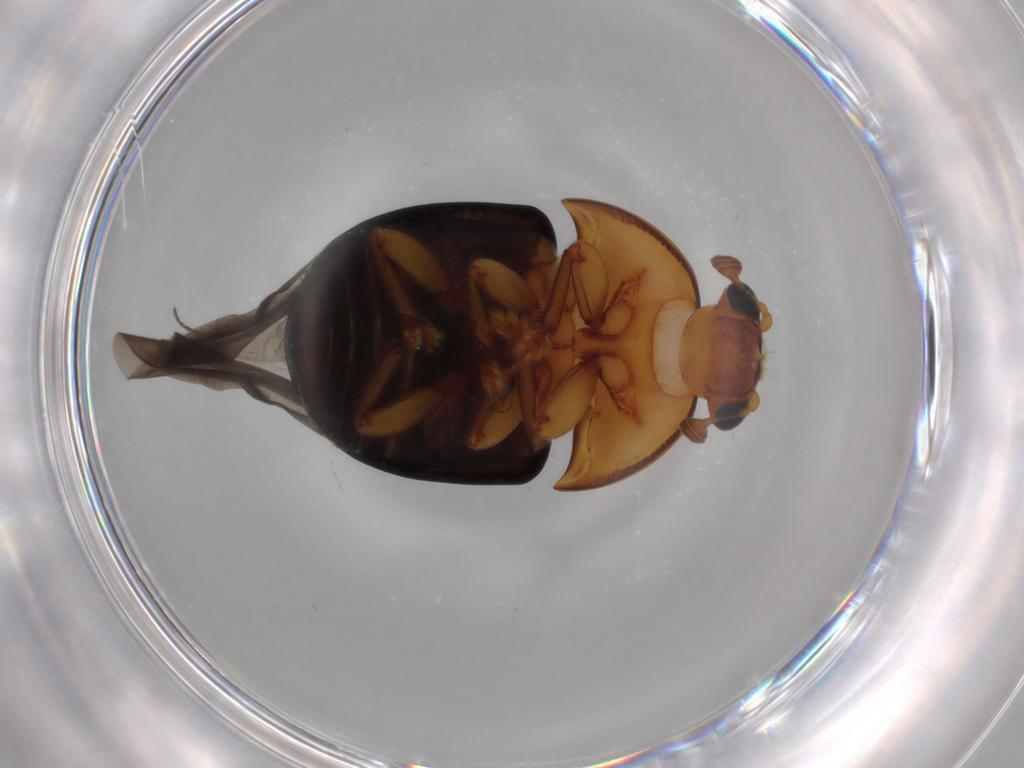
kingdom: Animalia
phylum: Arthropoda
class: Insecta
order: Coleoptera
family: Nitidulidae
